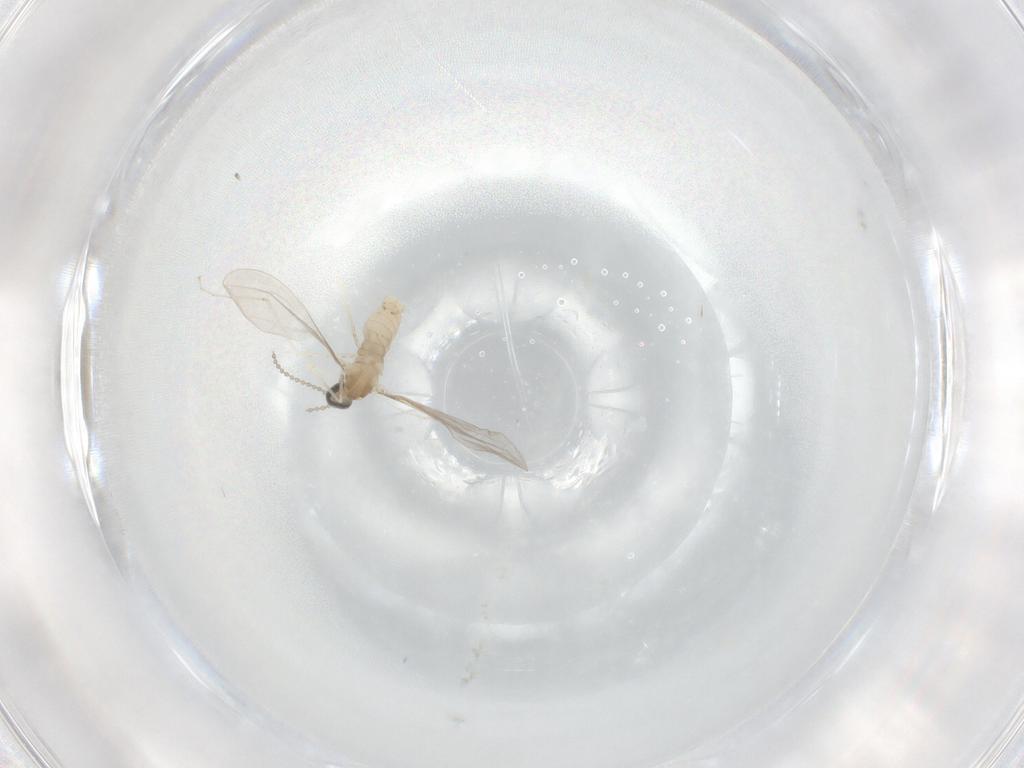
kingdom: Animalia
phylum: Arthropoda
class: Insecta
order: Diptera
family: Cecidomyiidae
